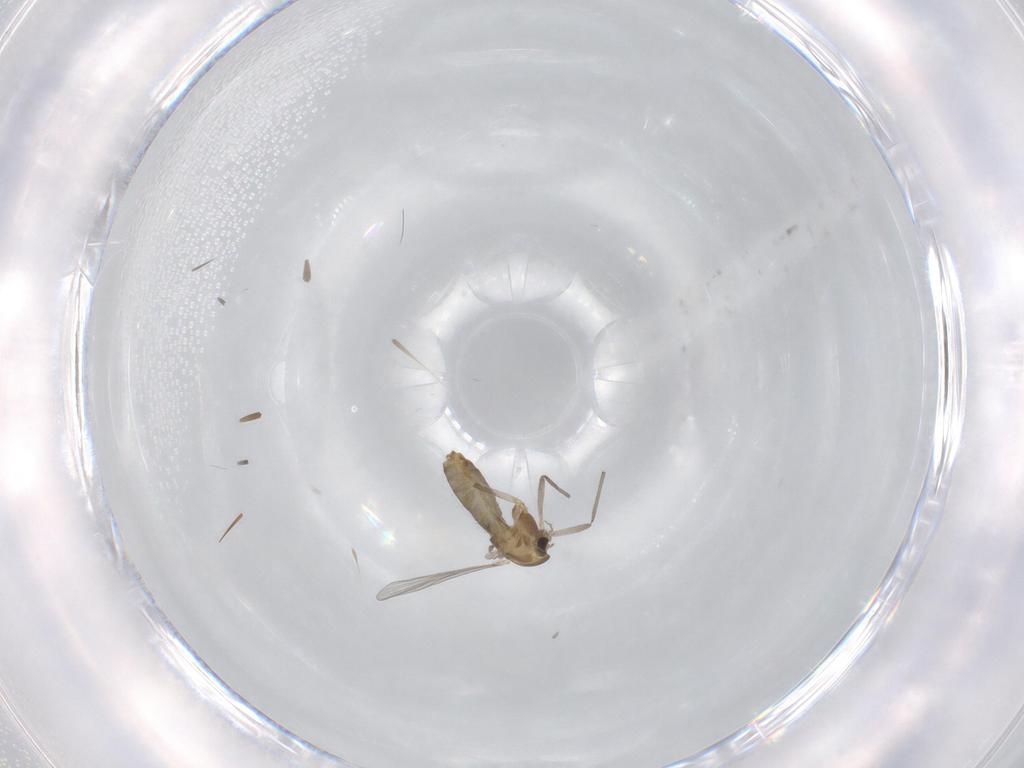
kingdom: Animalia
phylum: Arthropoda
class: Insecta
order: Diptera
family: Chironomidae
